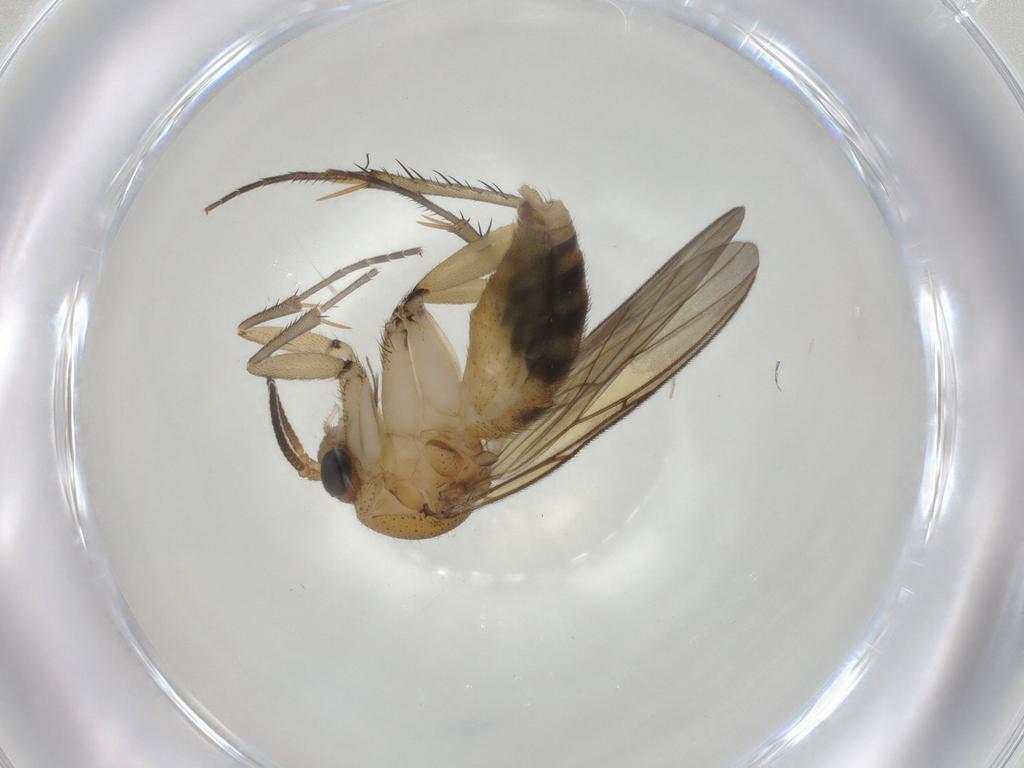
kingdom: Animalia
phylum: Arthropoda
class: Insecta
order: Diptera
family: Mycetophilidae
